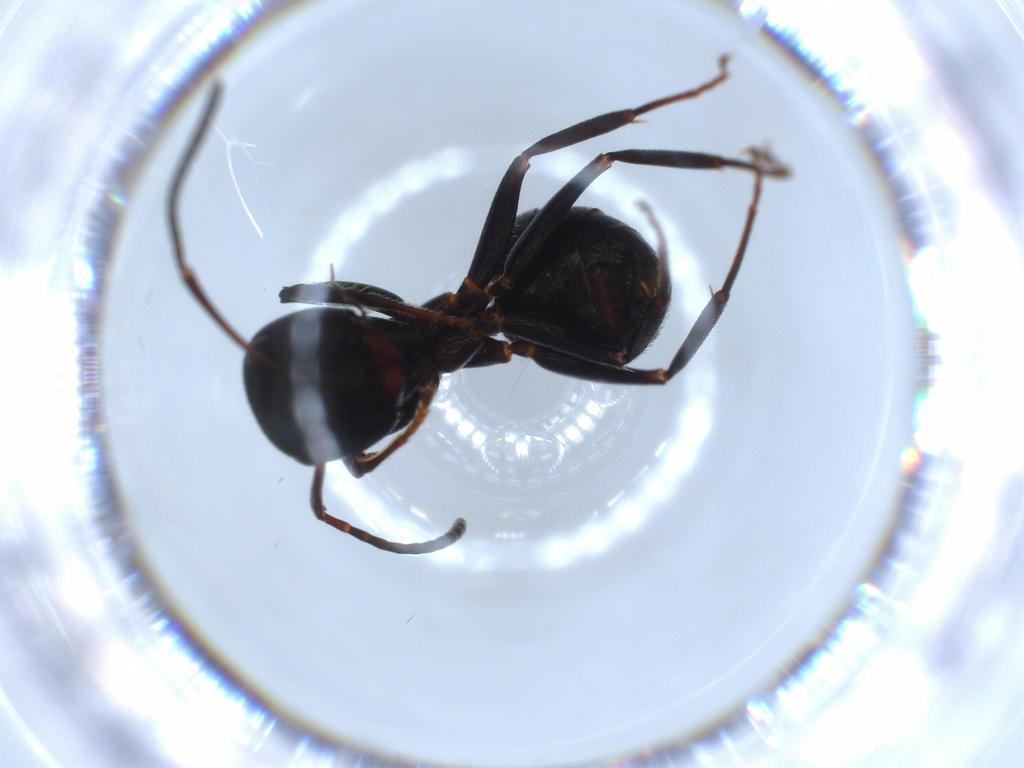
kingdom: Animalia
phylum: Arthropoda
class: Insecta
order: Hymenoptera
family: Formicidae
